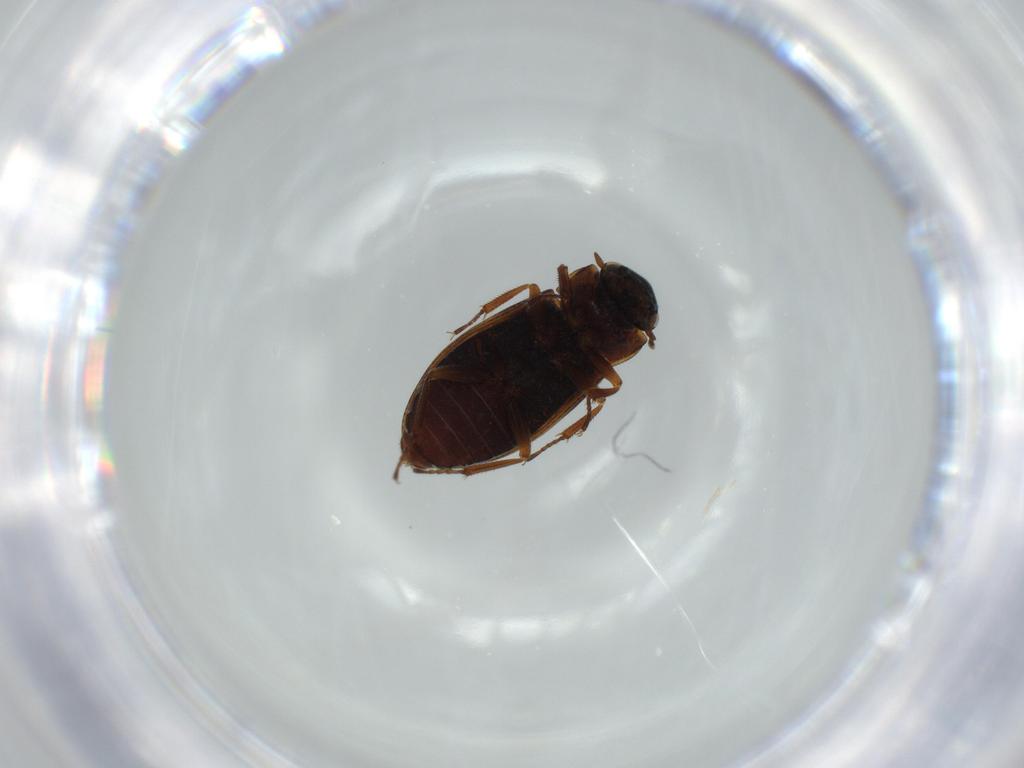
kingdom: Animalia
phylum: Arthropoda
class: Insecta
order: Coleoptera
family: Helophoridae
